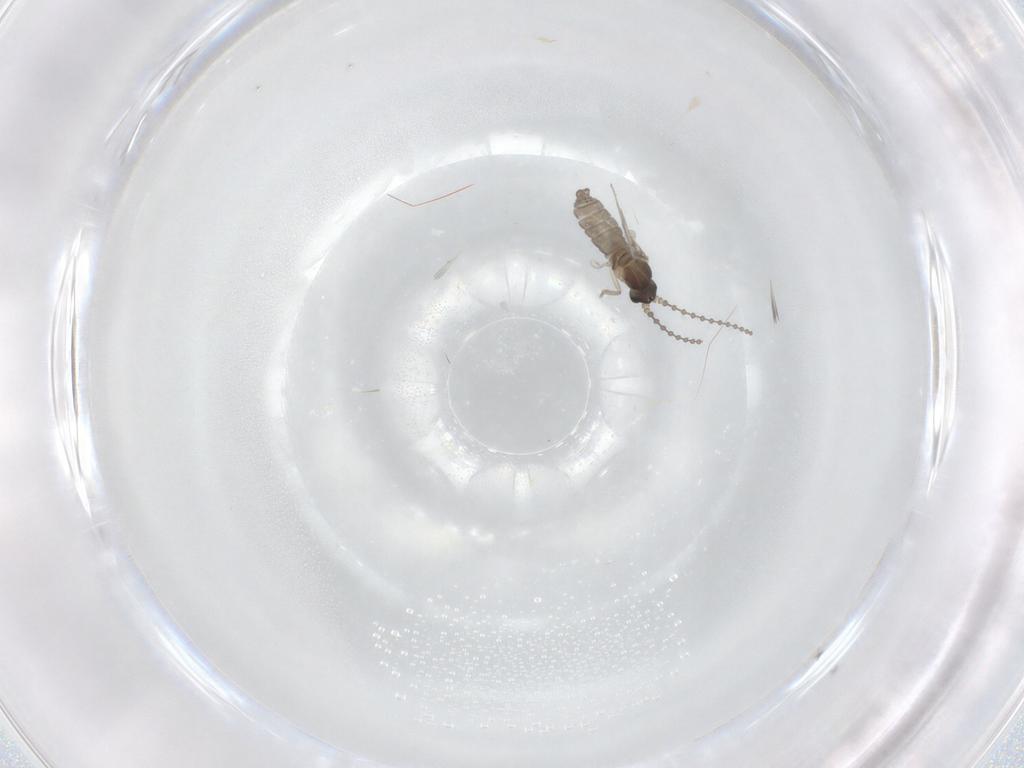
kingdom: Animalia
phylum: Arthropoda
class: Insecta
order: Diptera
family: Cecidomyiidae
